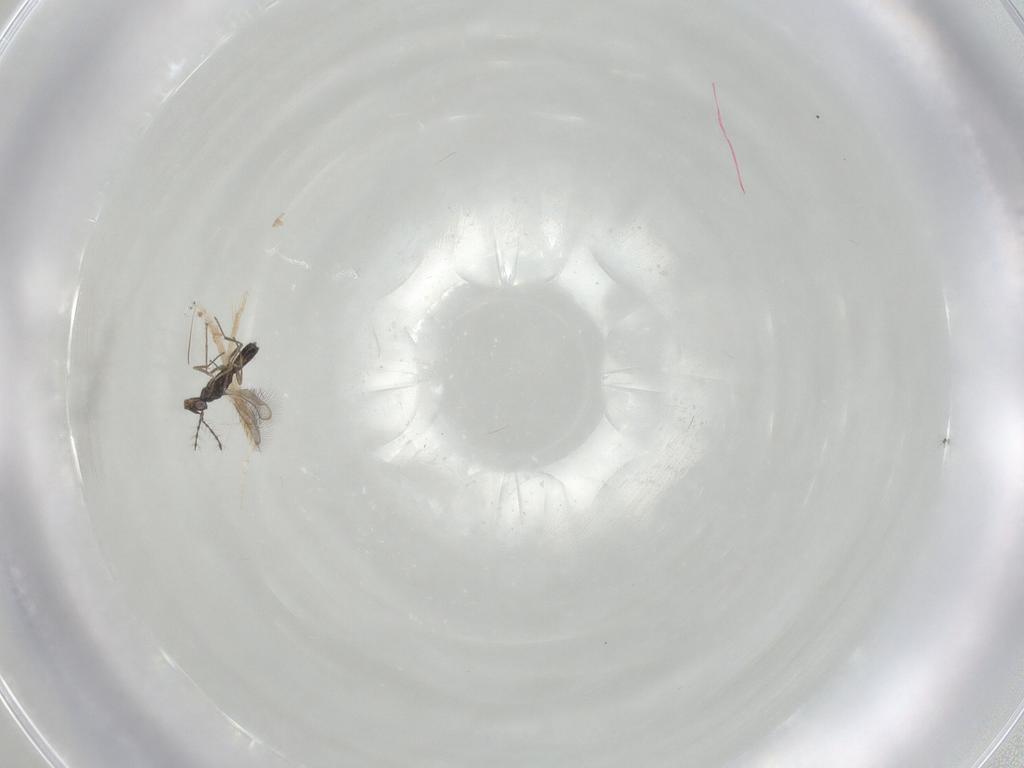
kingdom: Animalia
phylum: Arthropoda
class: Insecta
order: Hymenoptera
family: Pteromalidae
